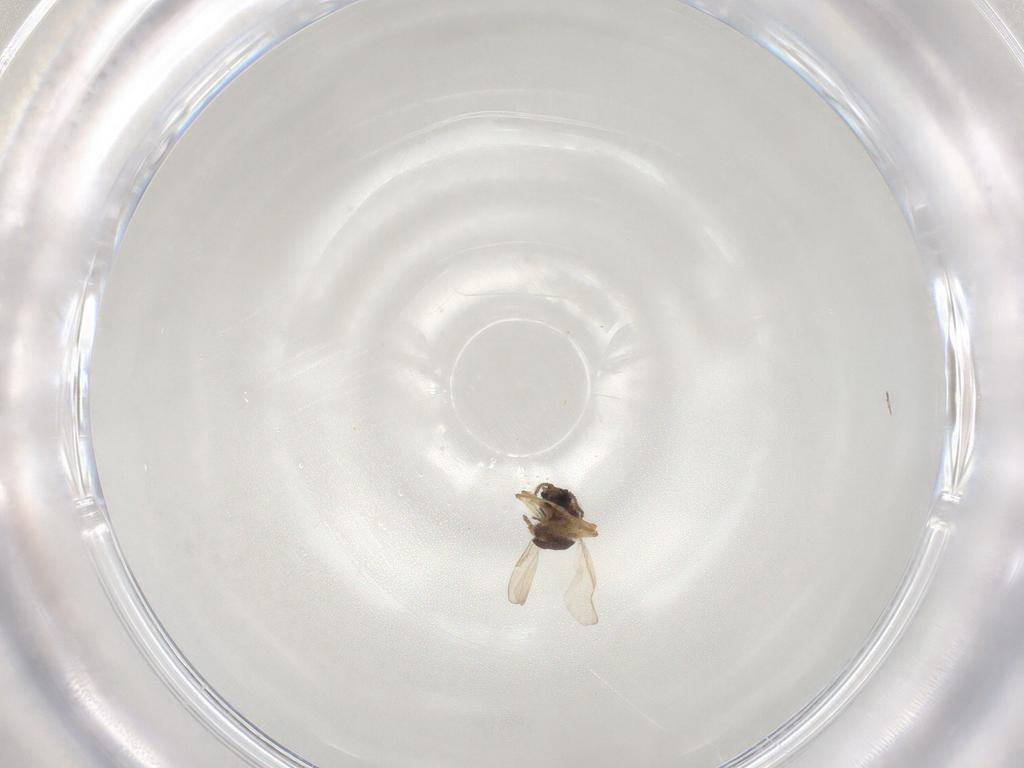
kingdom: Animalia
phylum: Arthropoda
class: Insecta
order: Diptera
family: Ceratopogonidae
